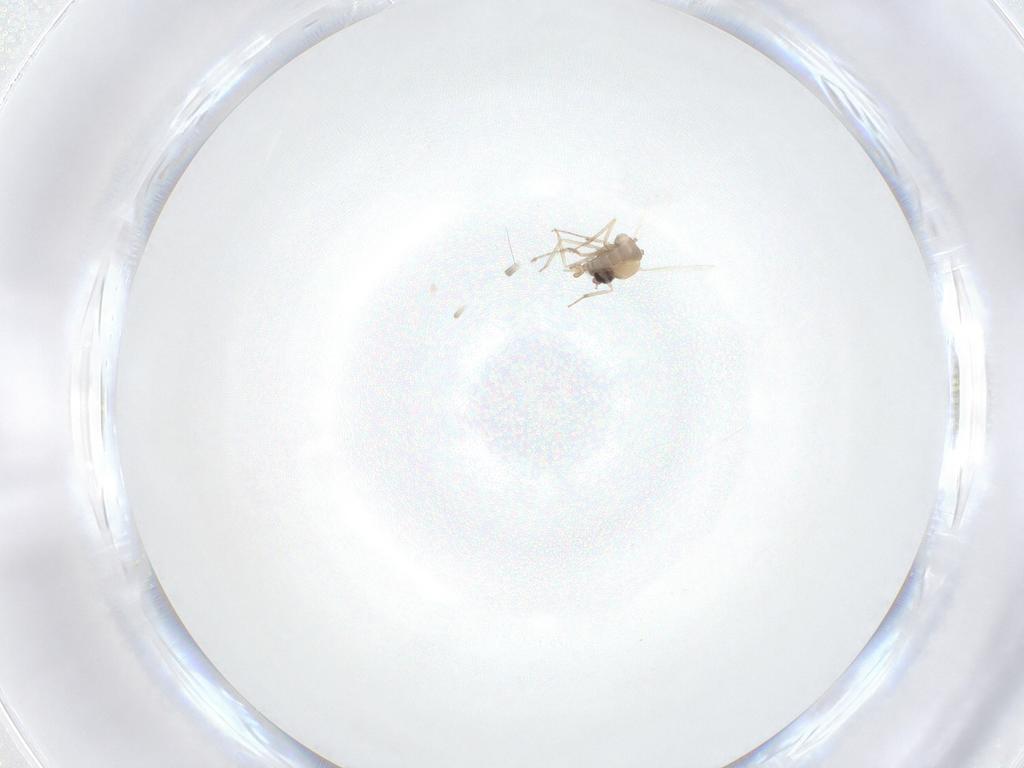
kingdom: Animalia
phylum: Arthropoda
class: Insecta
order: Diptera
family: Ceratopogonidae
